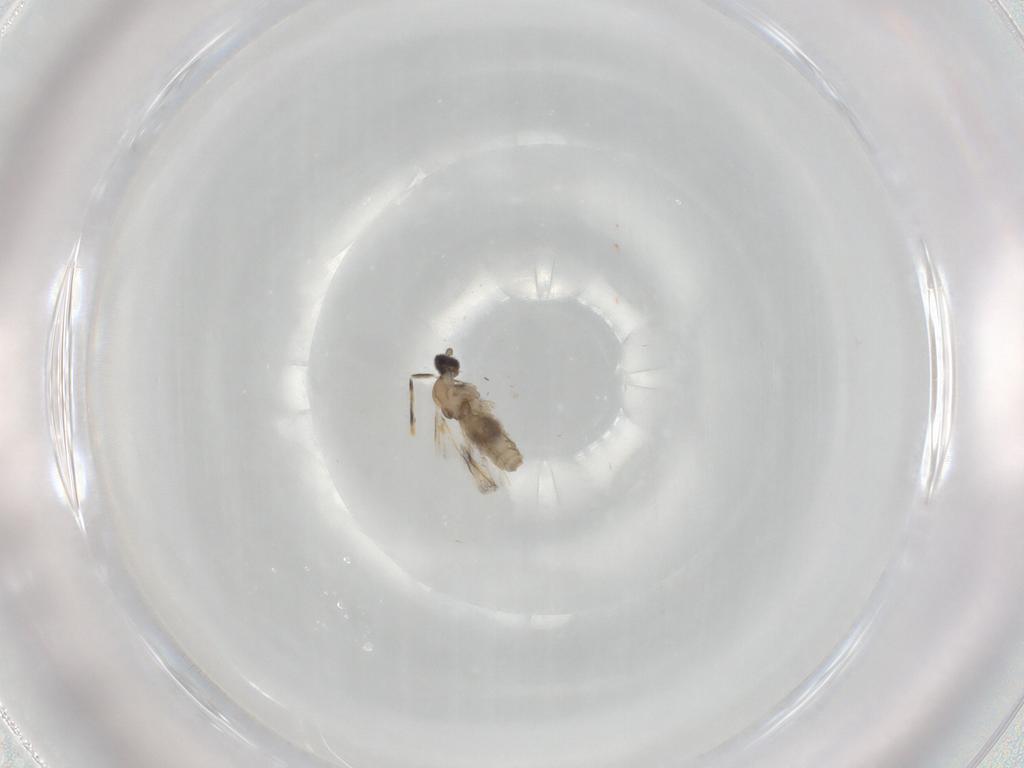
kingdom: Animalia
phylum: Arthropoda
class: Insecta
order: Diptera
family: Cecidomyiidae
